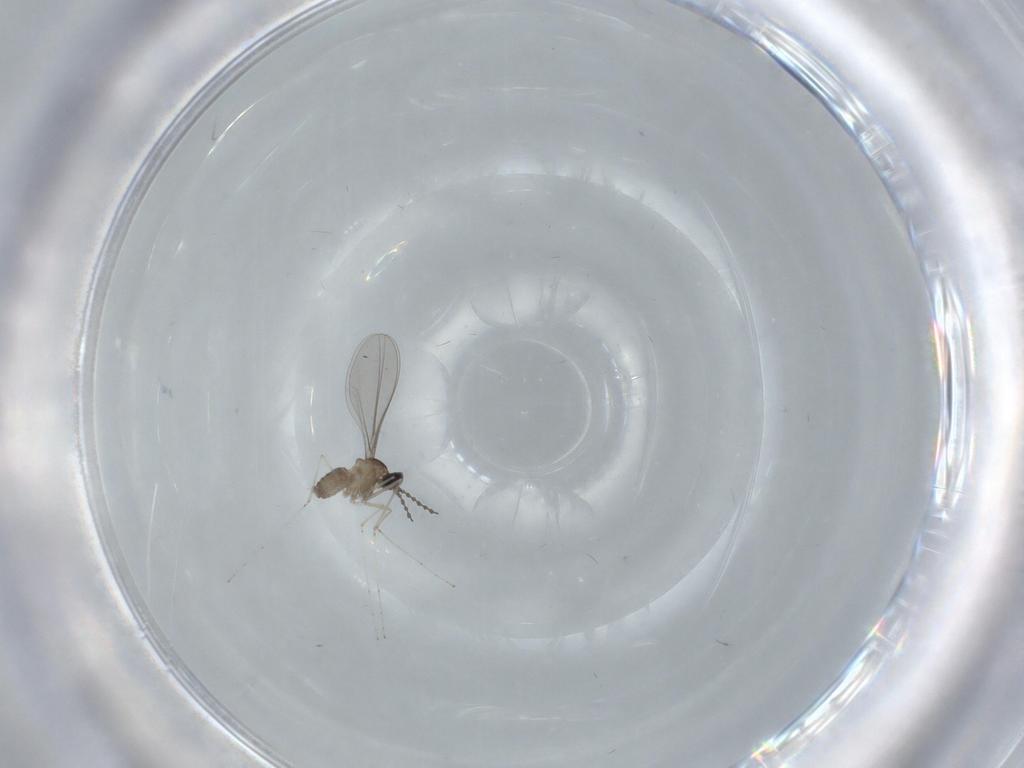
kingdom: Animalia
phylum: Arthropoda
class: Insecta
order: Diptera
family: Sciaridae
